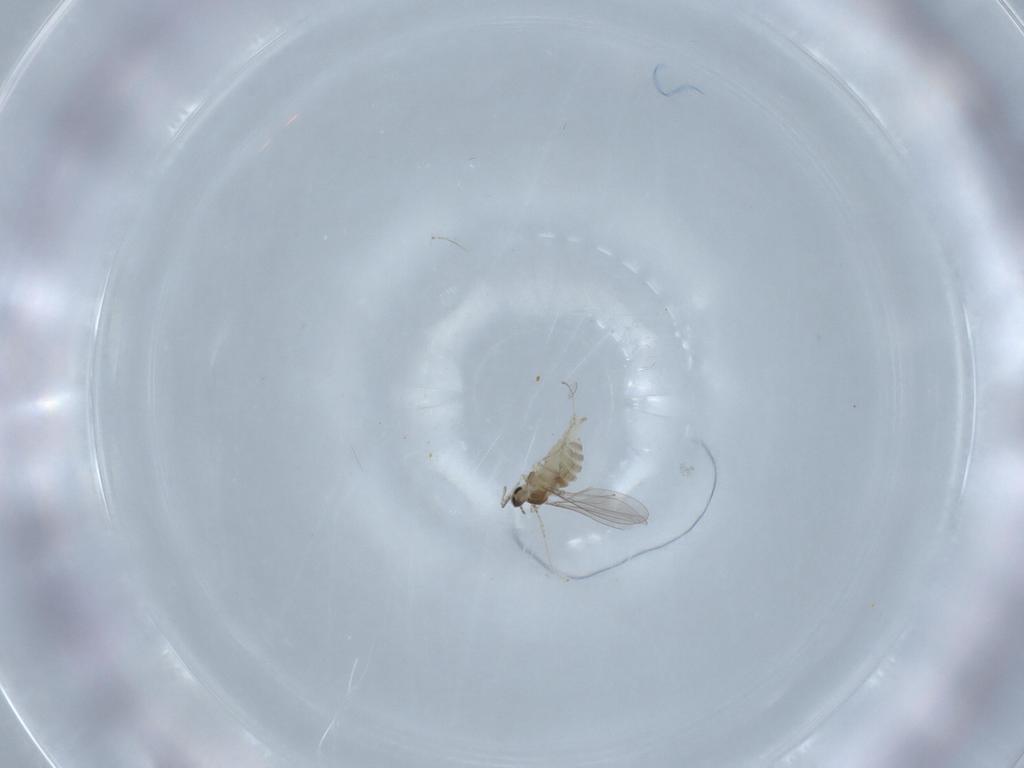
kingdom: Animalia
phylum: Arthropoda
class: Insecta
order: Diptera
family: Cecidomyiidae
